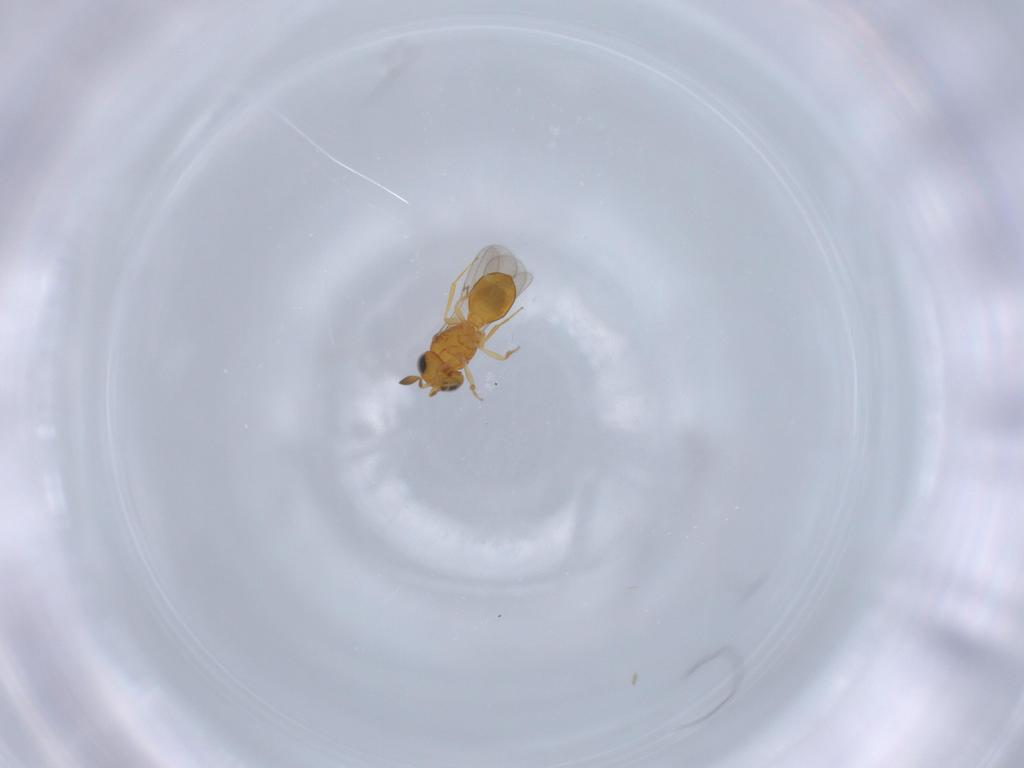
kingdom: Animalia
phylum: Arthropoda
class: Insecta
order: Hymenoptera
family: Scelionidae
